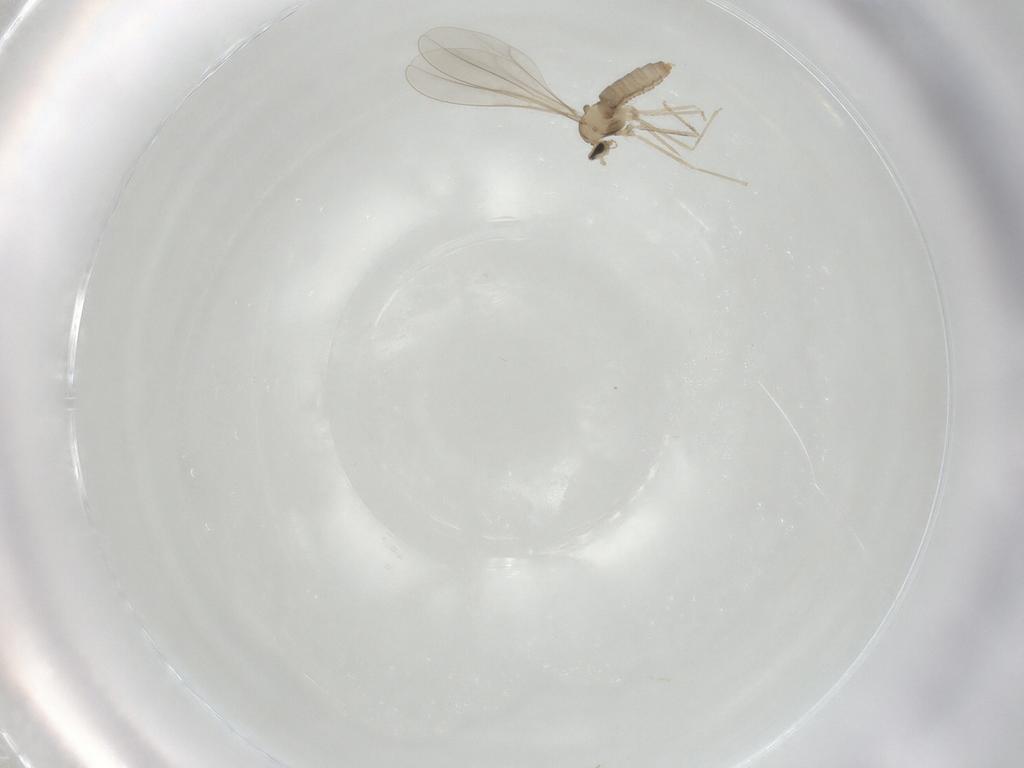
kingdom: Animalia
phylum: Arthropoda
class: Insecta
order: Diptera
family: Cecidomyiidae
